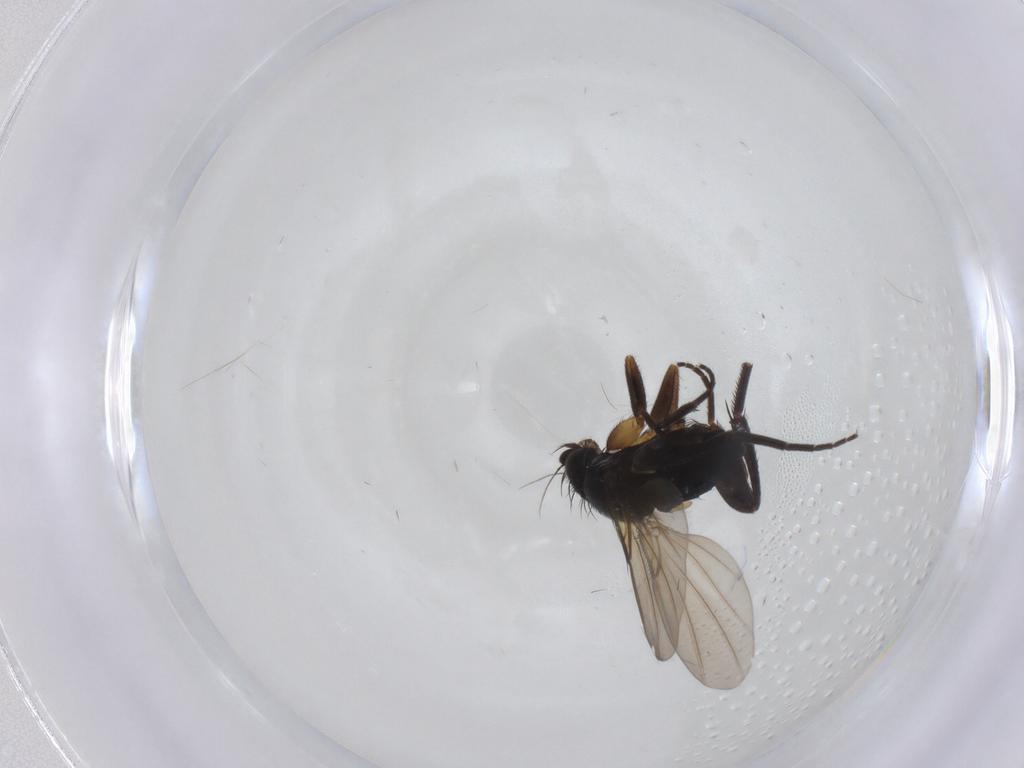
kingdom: Animalia
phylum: Arthropoda
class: Insecta
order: Diptera
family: Phoridae
